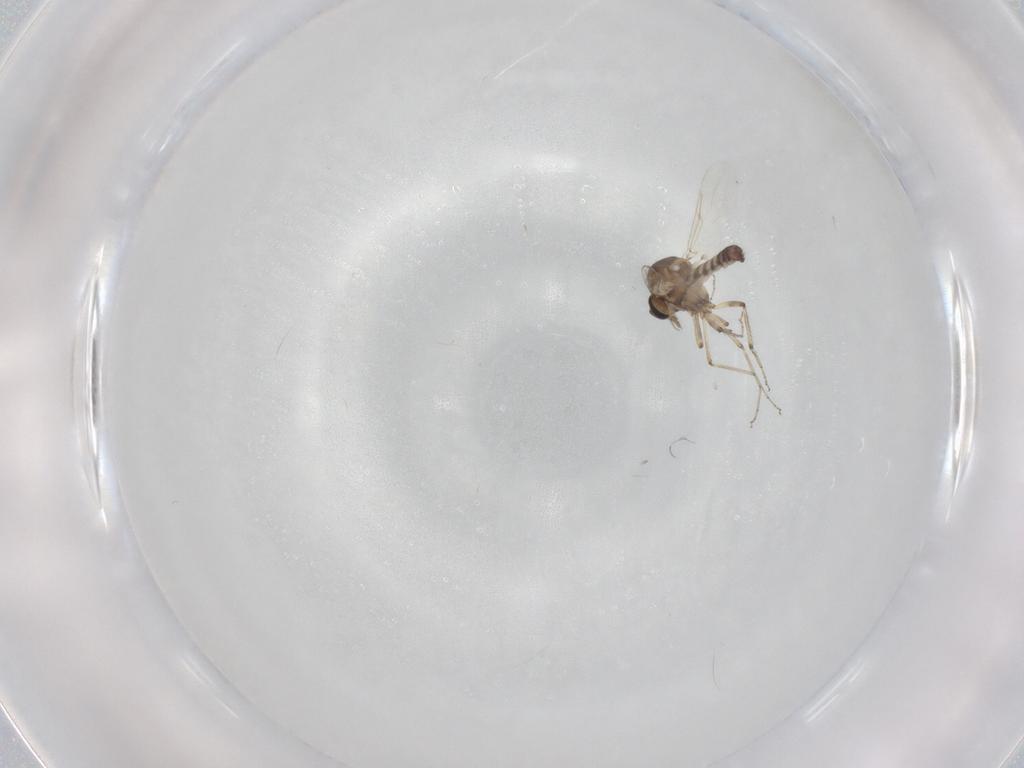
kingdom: Animalia
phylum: Arthropoda
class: Insecta
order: Diptera
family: Ceratopogonidae
